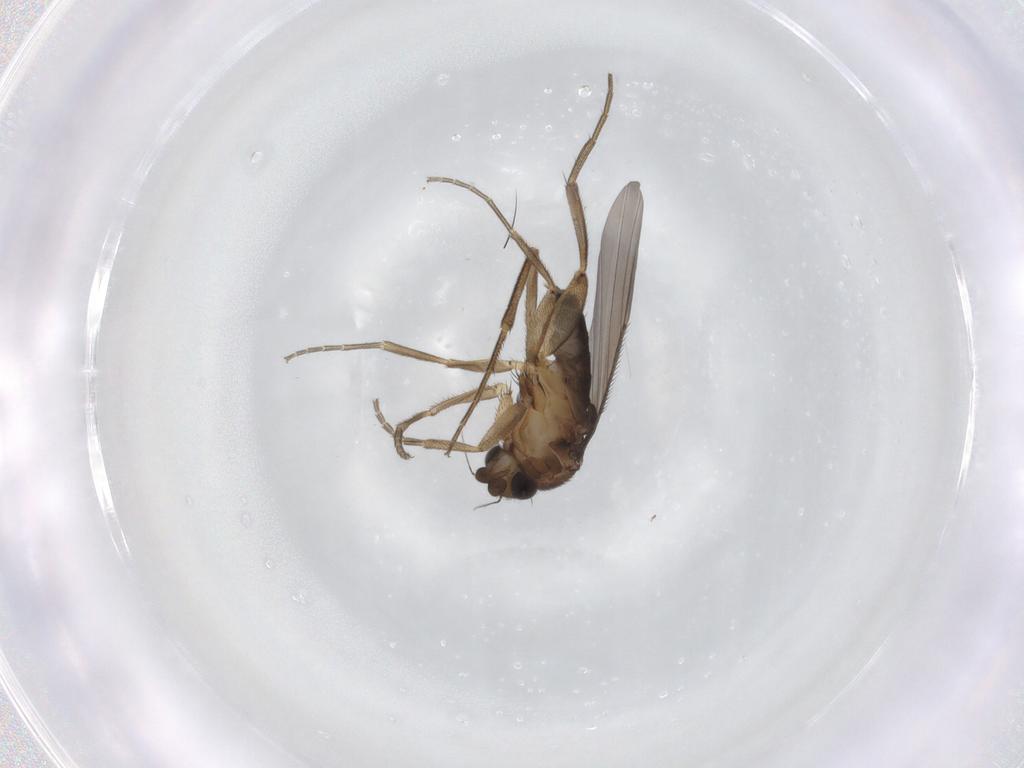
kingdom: Animalia
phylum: Arthropoda
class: Insecta
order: Diptera
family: Phoridae
